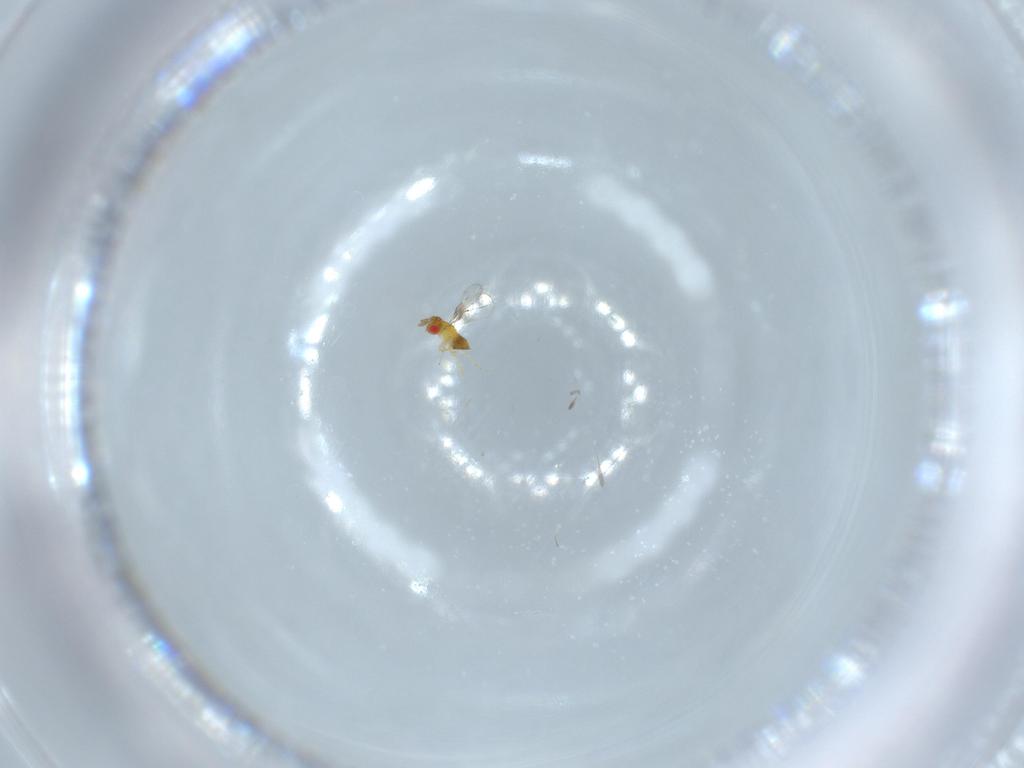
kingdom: Animalia
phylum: Arthropoda
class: Insecta
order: Hymenoptera
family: Trichogrammatidae
